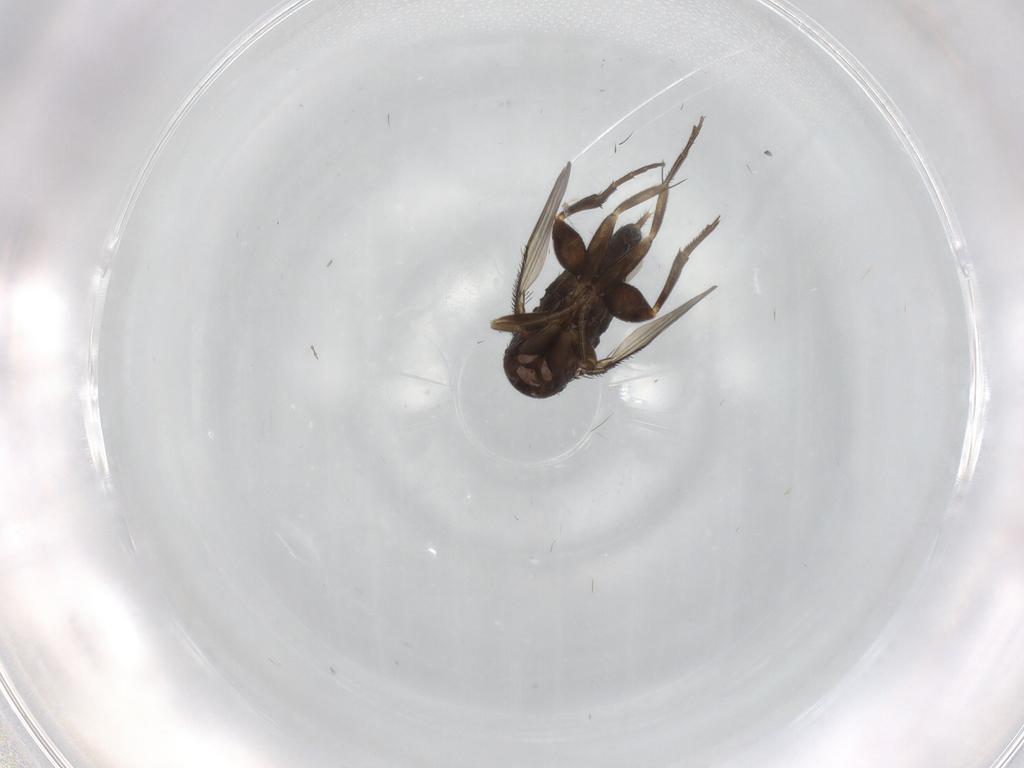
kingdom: Animalia
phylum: Arthropoda
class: Insecta
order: Diptera
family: Phoridae
